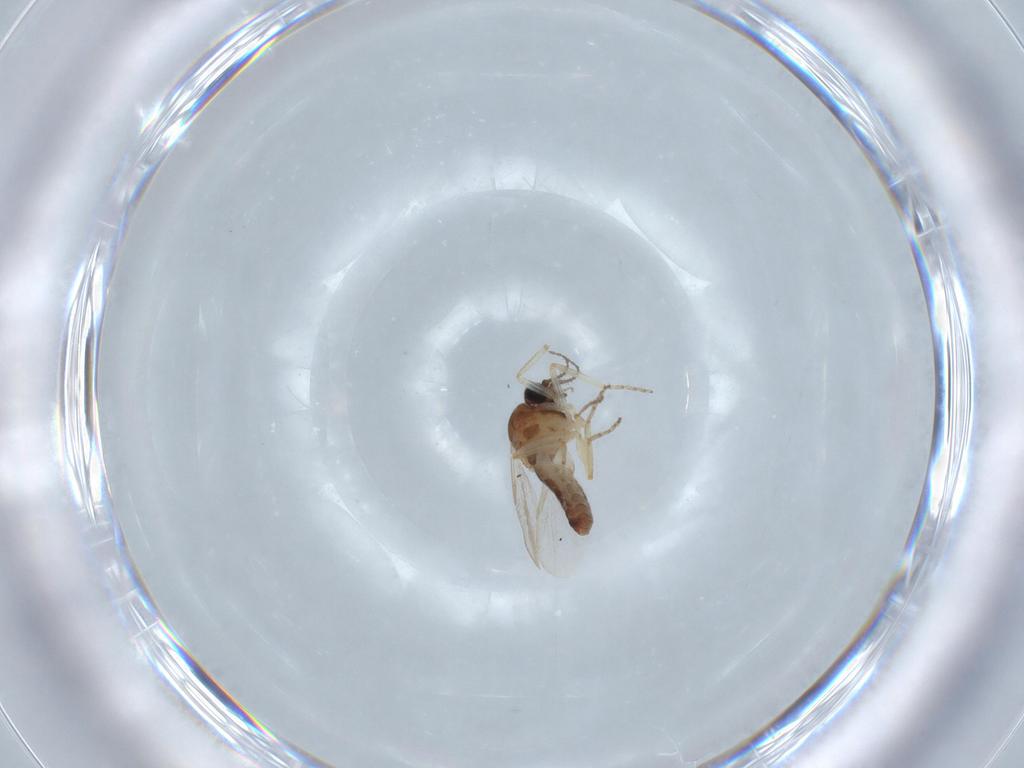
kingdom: Animalia
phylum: Arthropoda
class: Insecta
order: Diptera
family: Ceratopogonidae
